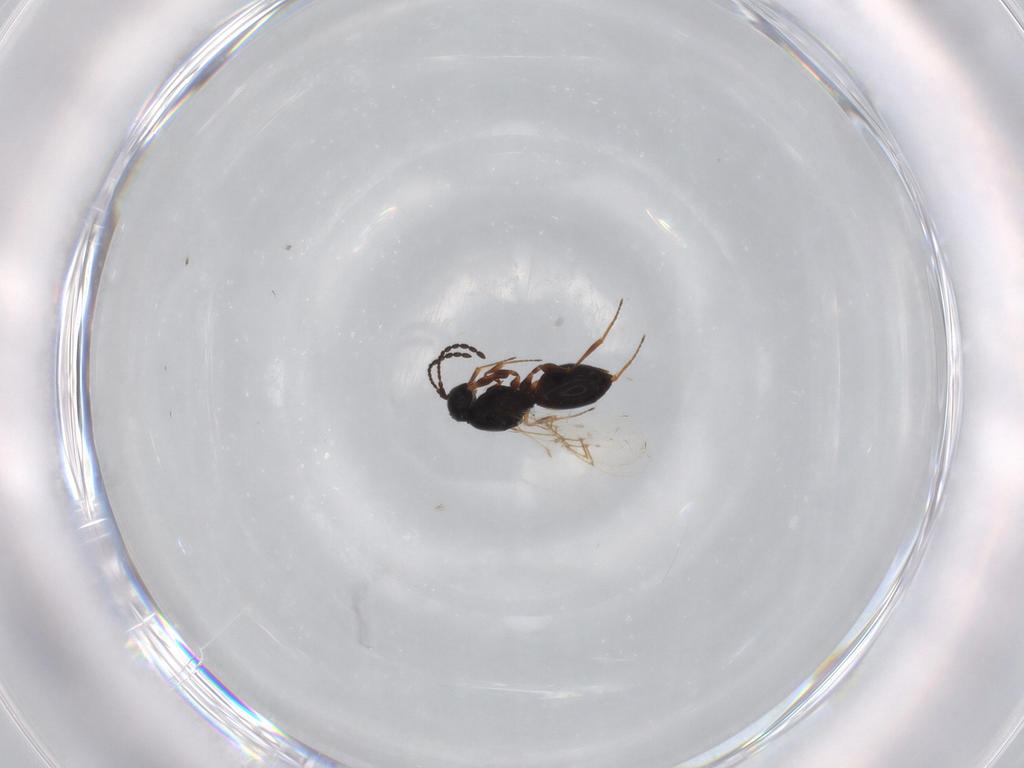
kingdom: Animalia
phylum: Arthropoda
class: Insecta
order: Hymenoptera
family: Figitidae
